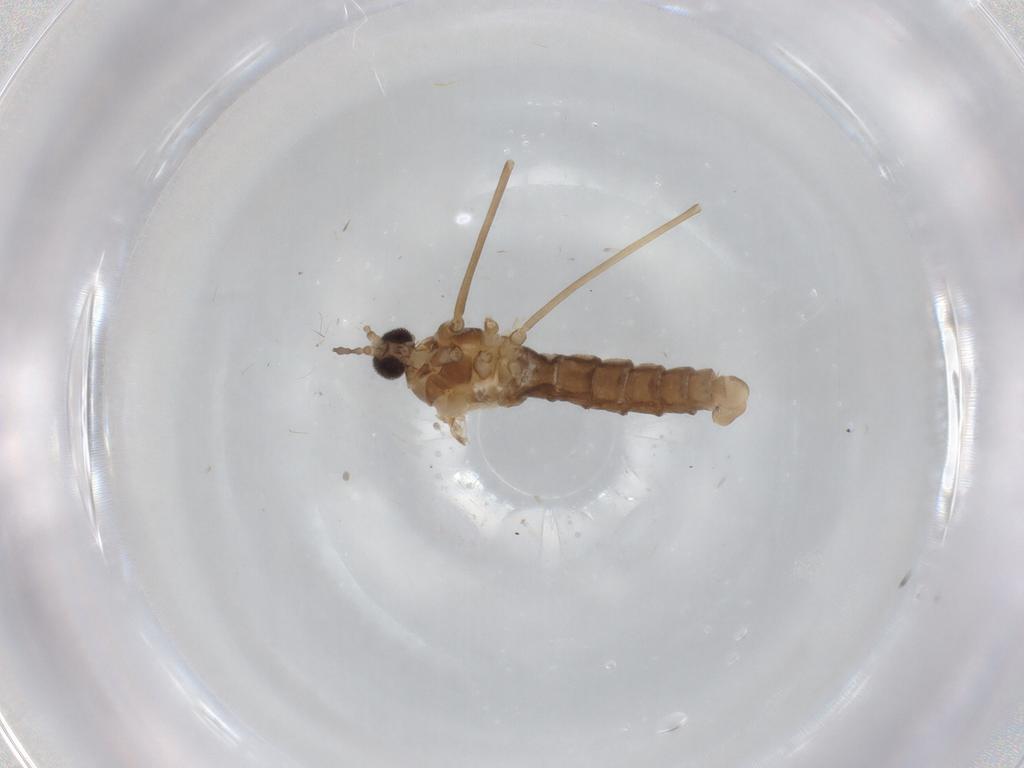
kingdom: Animalia
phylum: Arthropoda
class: Insecta
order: Diptera
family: Cecidomyiidae
